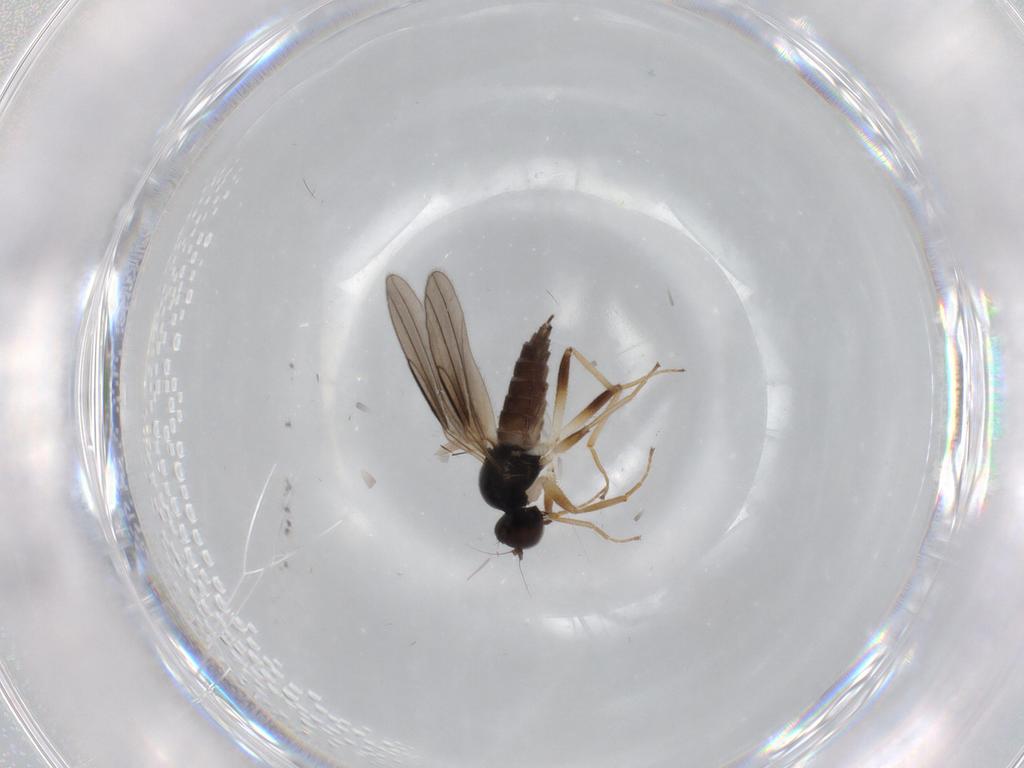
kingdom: Animalia
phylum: Arthropoda
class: Insecta
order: Diptera
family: Hybotidae
